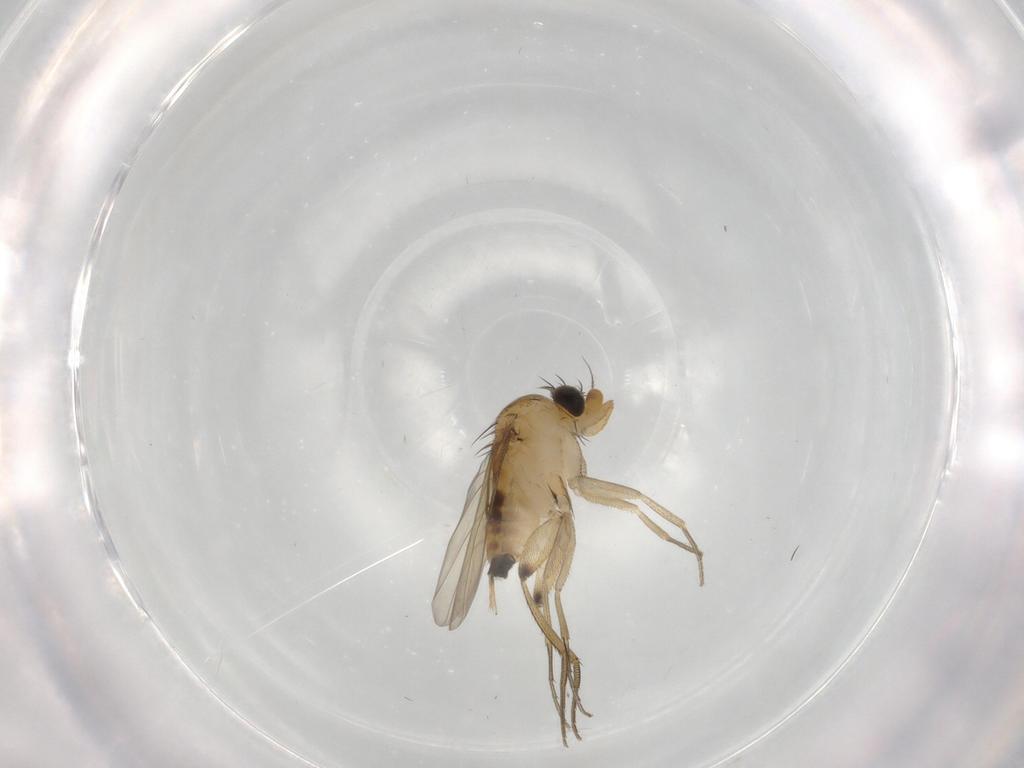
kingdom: Animalia
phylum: Arthropoda
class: Insecta
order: Diptera
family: Phoridae
